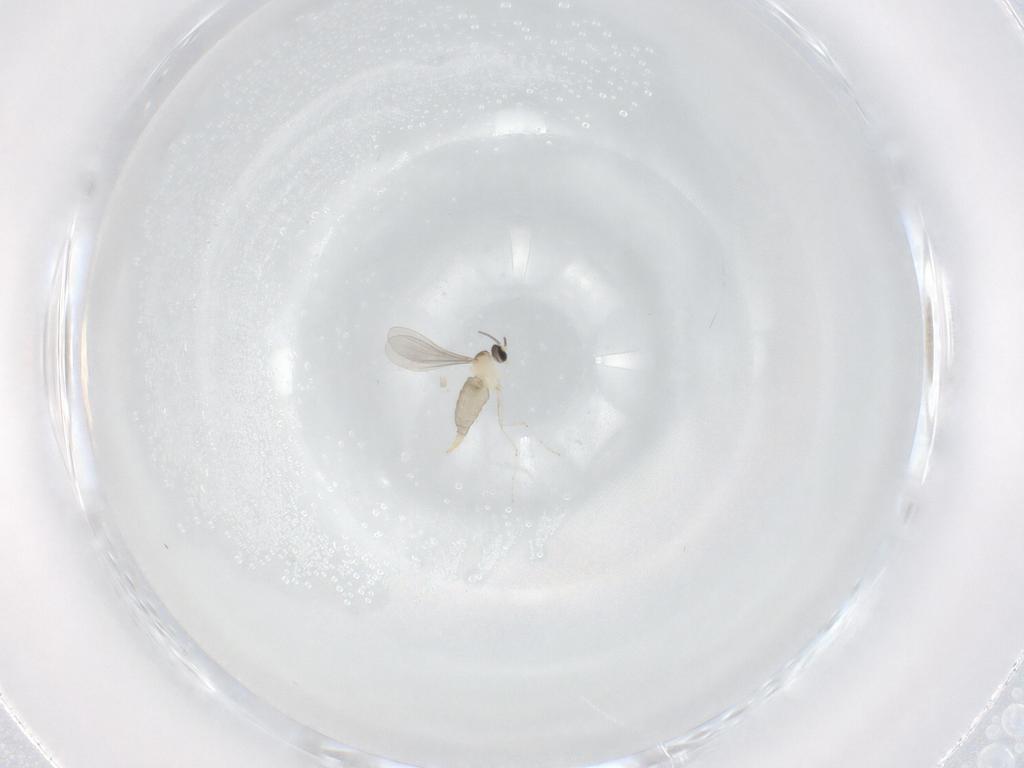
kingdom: Animalia
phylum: Arthropoda
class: Insecta
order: Diptera
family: Cecidomyiidae
